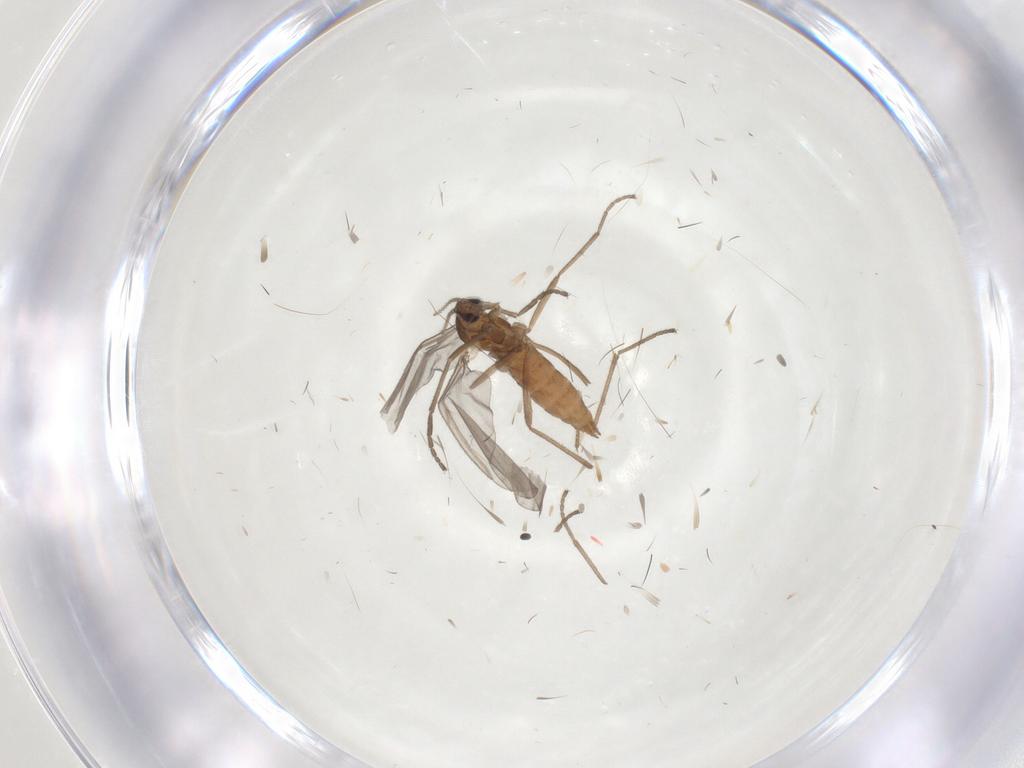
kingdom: Animalia
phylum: Arthropoda
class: Insecta
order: Diptera
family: Cecidomyiidae
